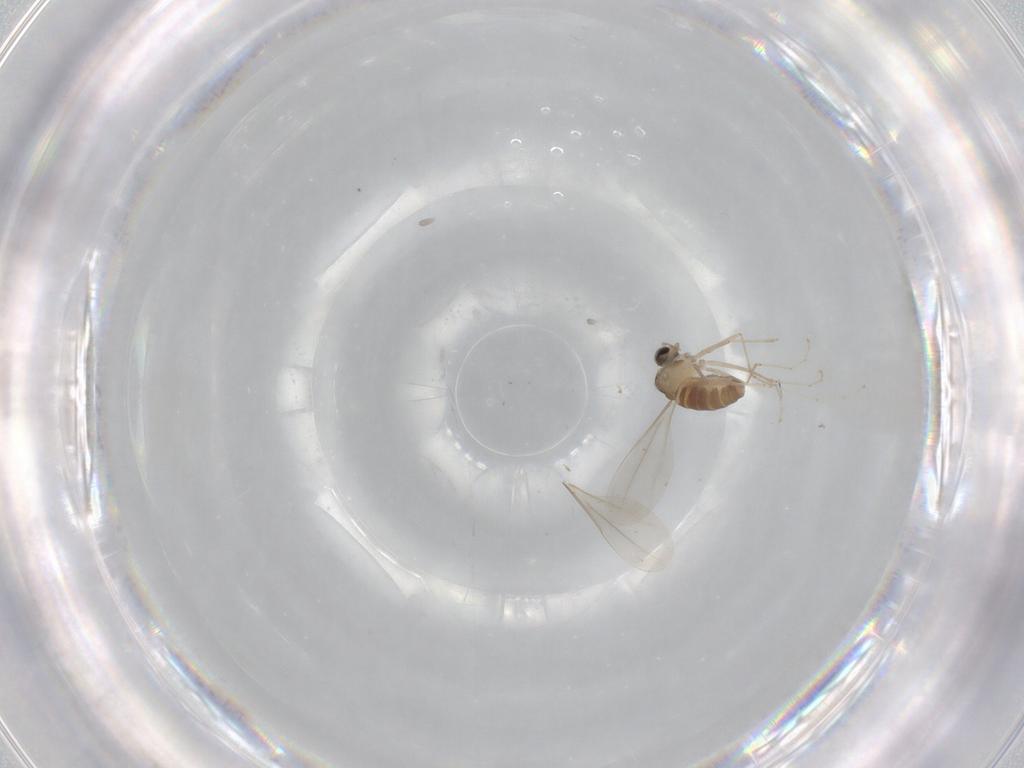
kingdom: Animalia
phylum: Arthropoda
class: Insecta
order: Diptera
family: Cecidomyiidae
